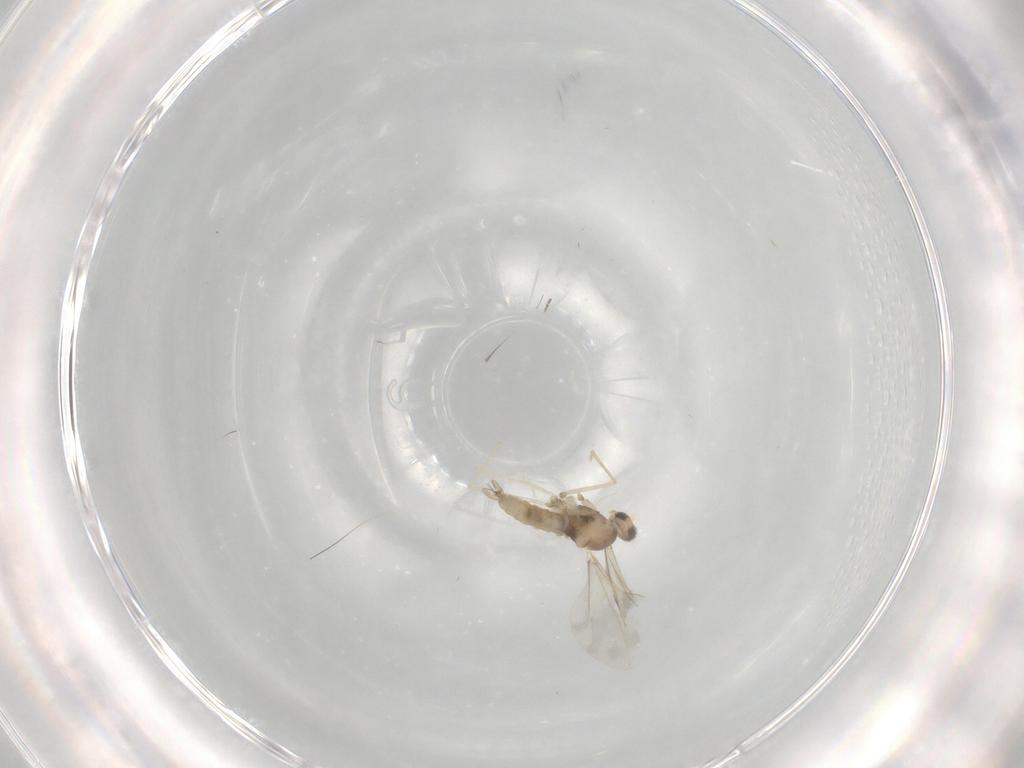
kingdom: Animalia
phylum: Arthropoda
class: Insecta
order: Diptera
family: Cecidomyiidae
